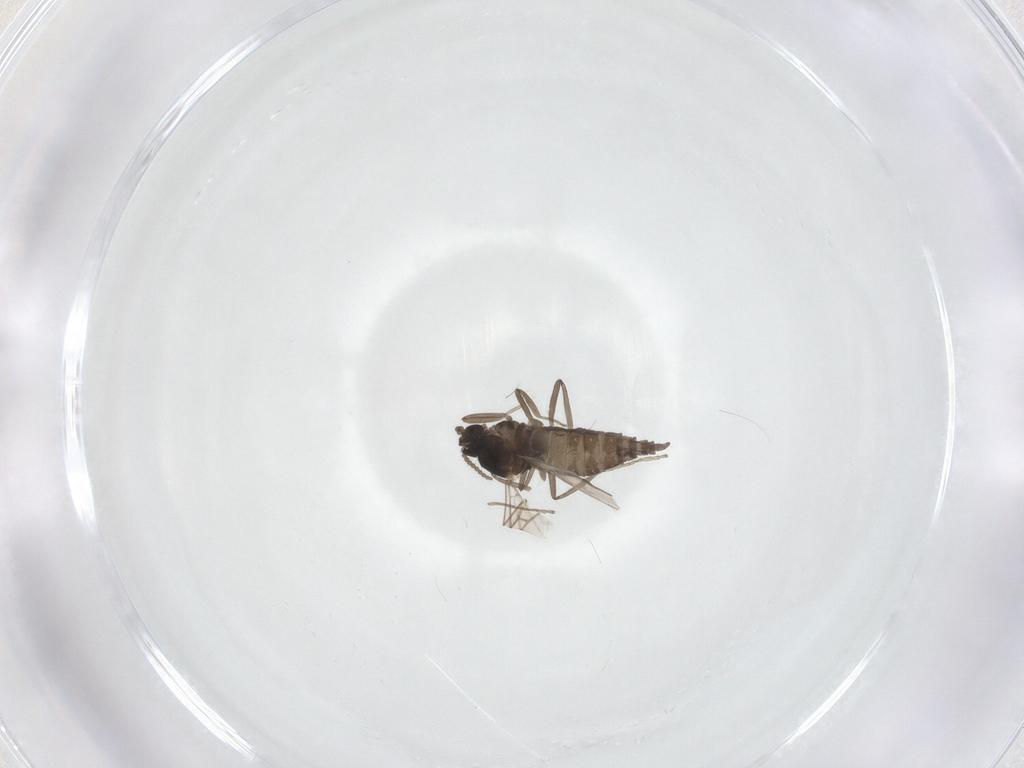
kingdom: Animalia
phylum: Arthropoda
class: Insecta
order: Diptera
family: Cecidomyiidae
